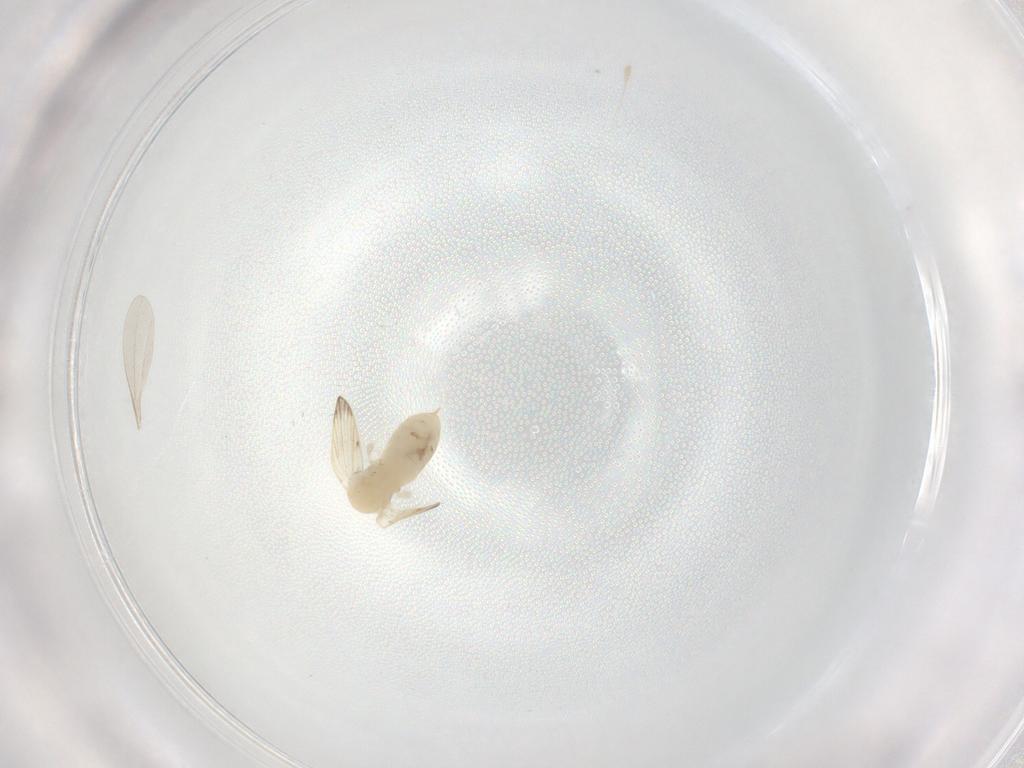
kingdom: Animalia
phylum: Arthropoda
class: Insecta
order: Diptera
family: Psychodidae
